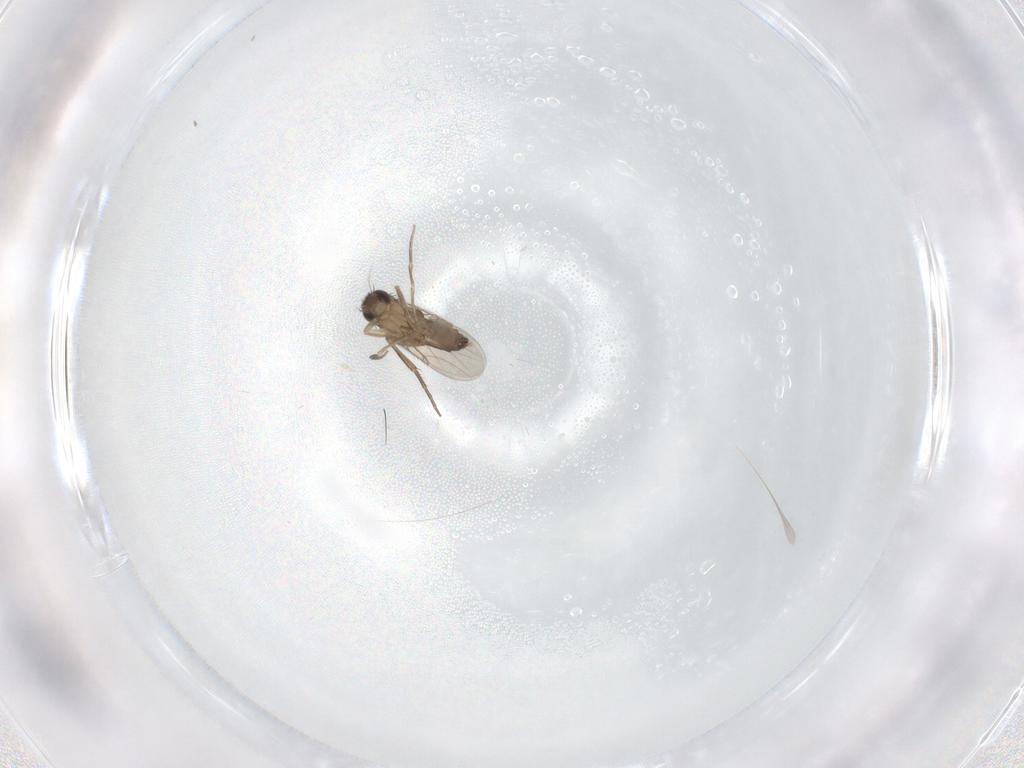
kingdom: Animalia
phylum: Arthropoda
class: Insecta
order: Diptera
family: Phoridae
